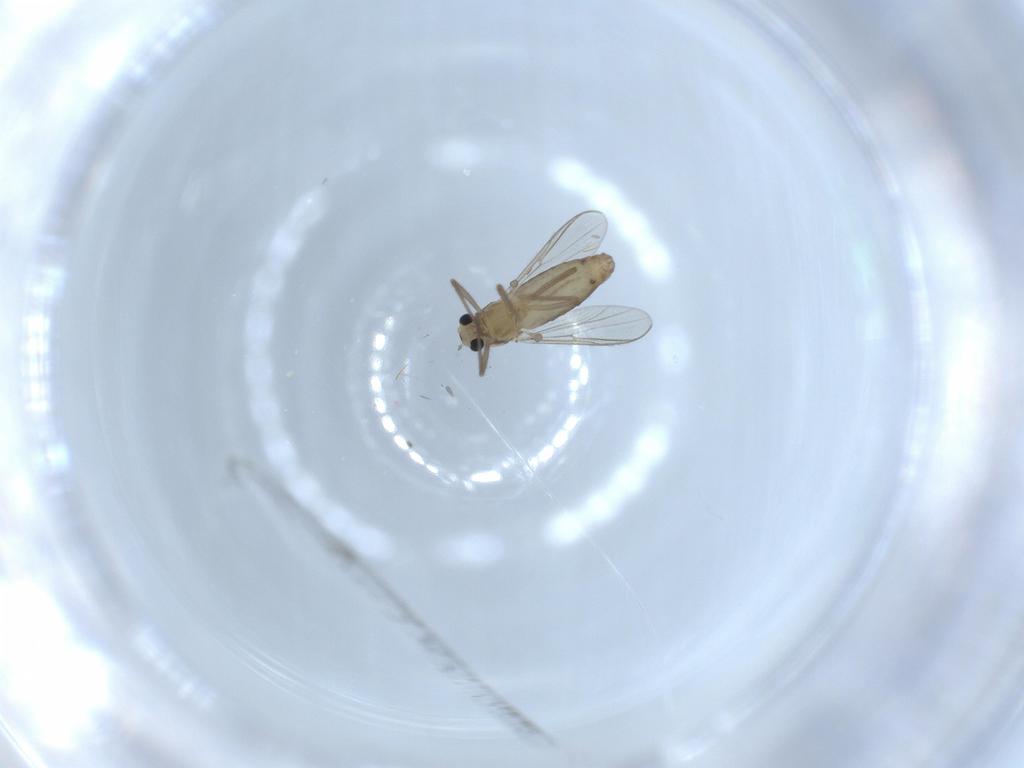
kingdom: Animalia
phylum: Arthropoda
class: Insecta
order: Diptera
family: Chironomidae
